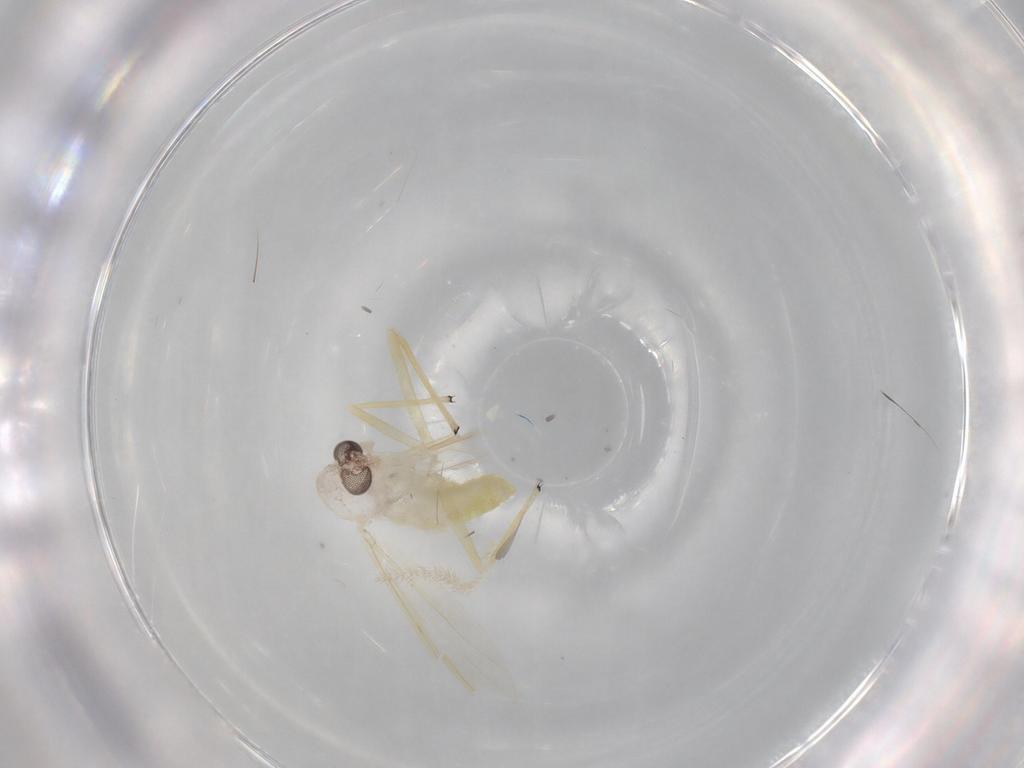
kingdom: Animalia
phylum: Arthropoda
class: Insecta
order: Diptera
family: Chironomidae
